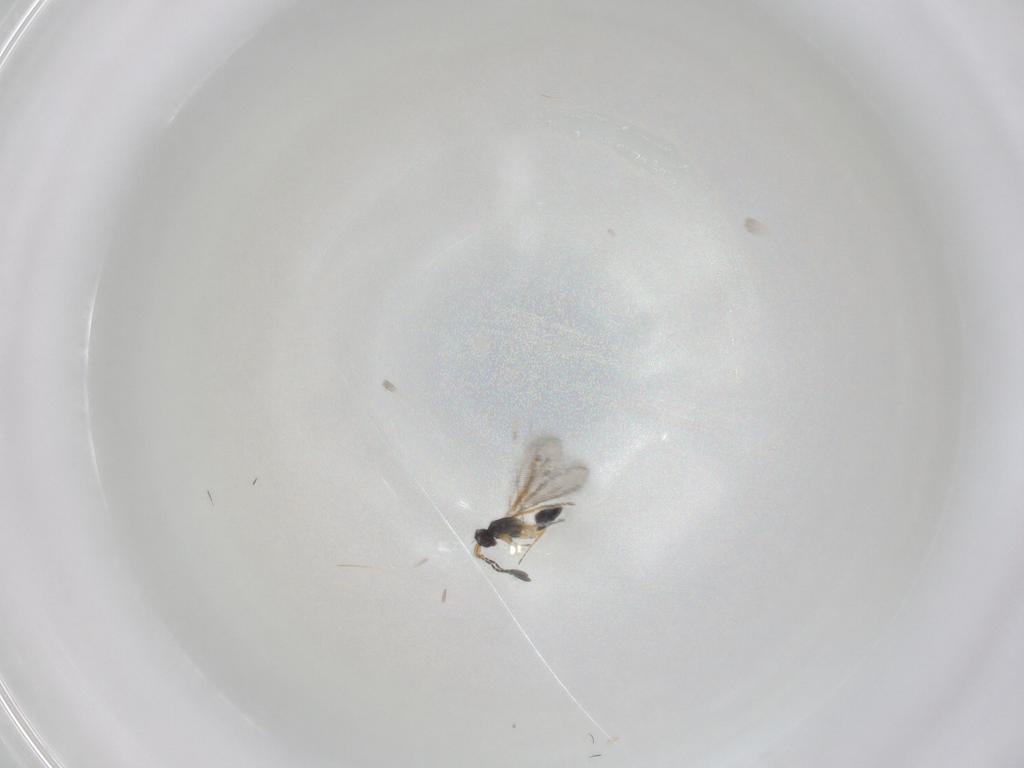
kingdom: Animalia
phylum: Arthropoda
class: Insecta
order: Hymenoptera
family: Mymaridae
